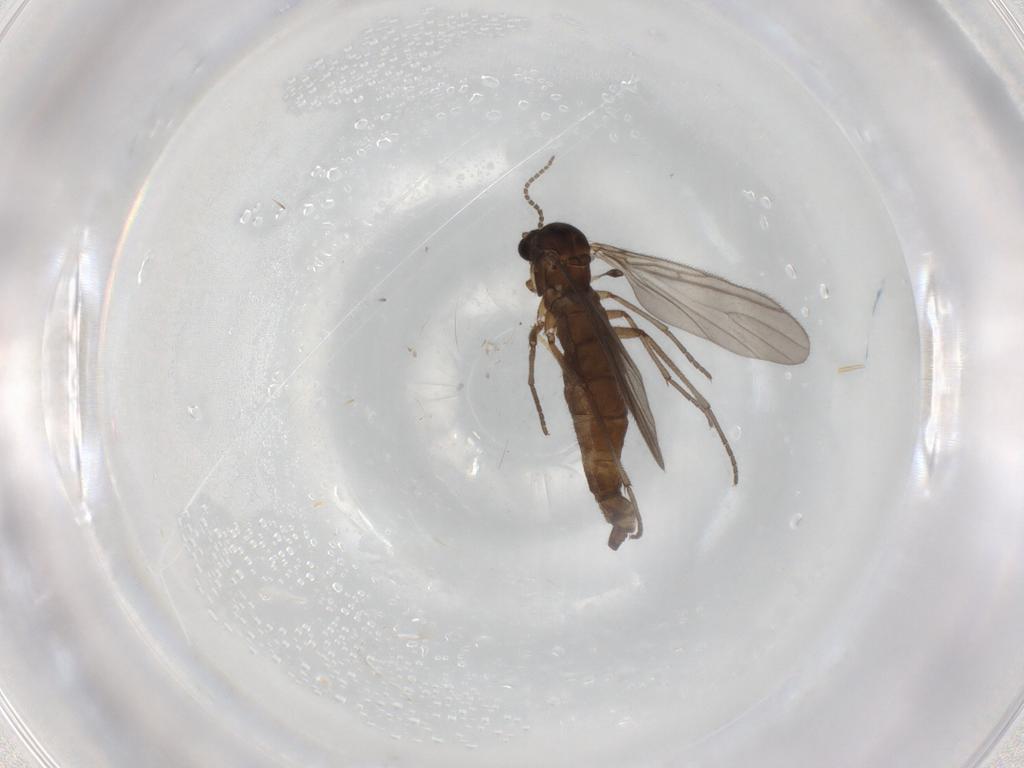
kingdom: Animalia
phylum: Arthropoda
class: Insecta
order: Diptera
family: Sciaridae
